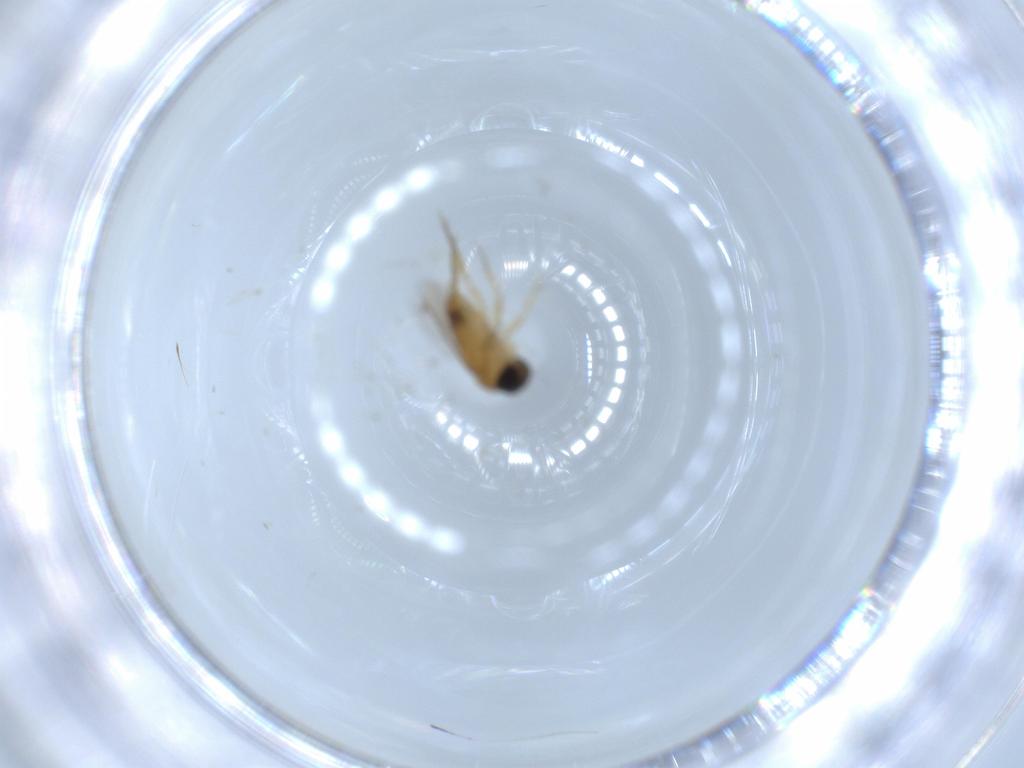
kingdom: Animalia
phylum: Arthropoda
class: Insecta
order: Diptera
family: Phoridae
